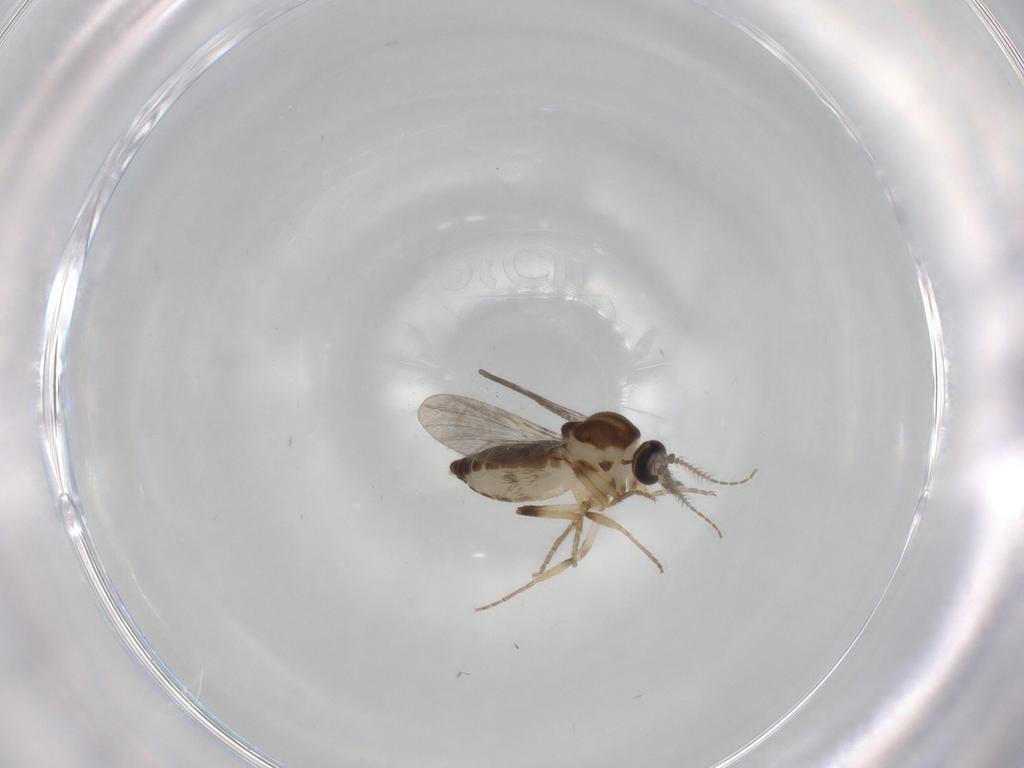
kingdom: Animalia
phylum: Arthropoda
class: Insecta
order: Diptera
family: Ceratopogonidae
